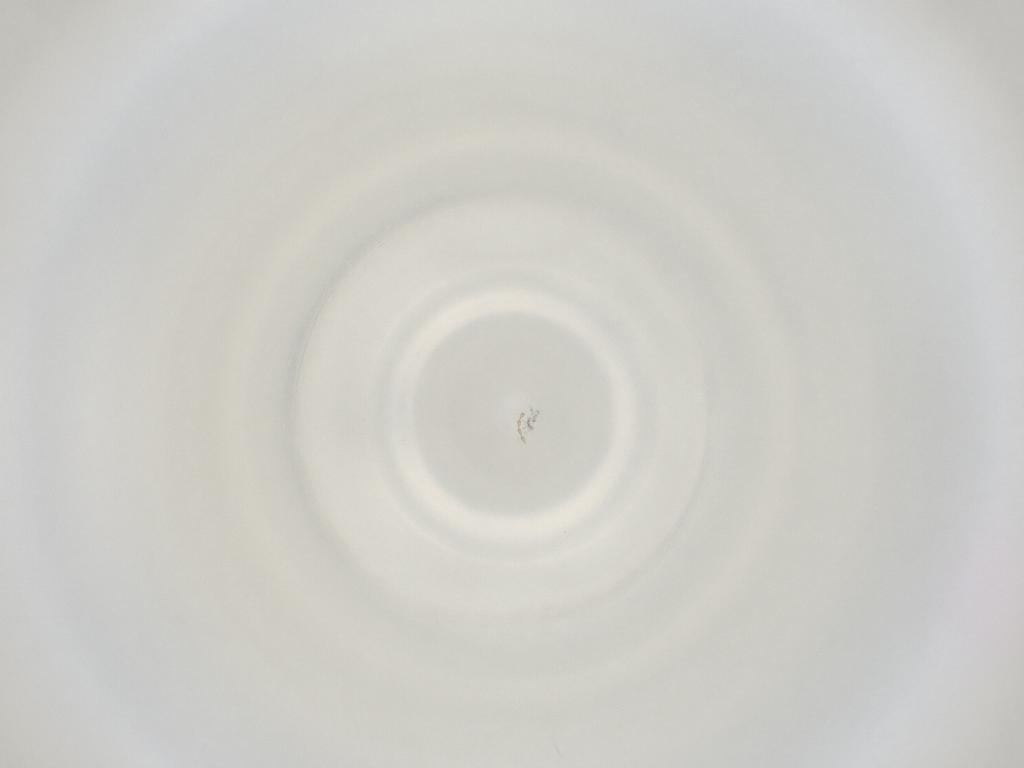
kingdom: Animalia
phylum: Arthropoda
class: Insecta
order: Diptera
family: Cecidomyiidae
